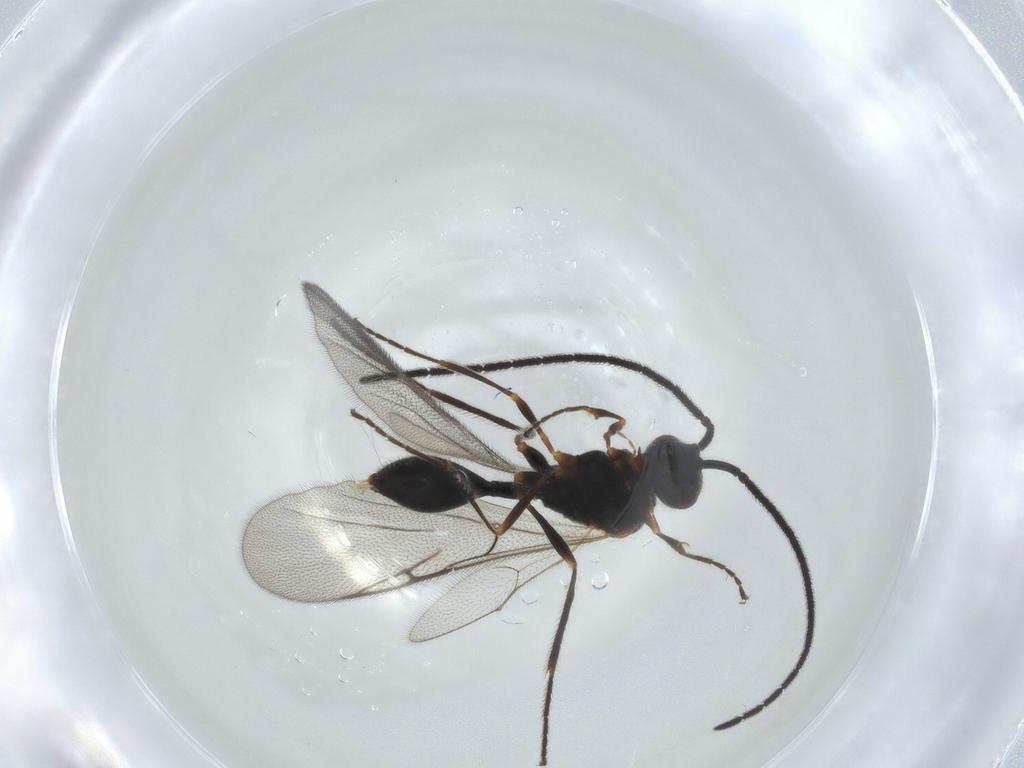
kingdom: Animalia
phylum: Arthropoda
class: Insecta
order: Hymenoptera
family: Diapriidae
